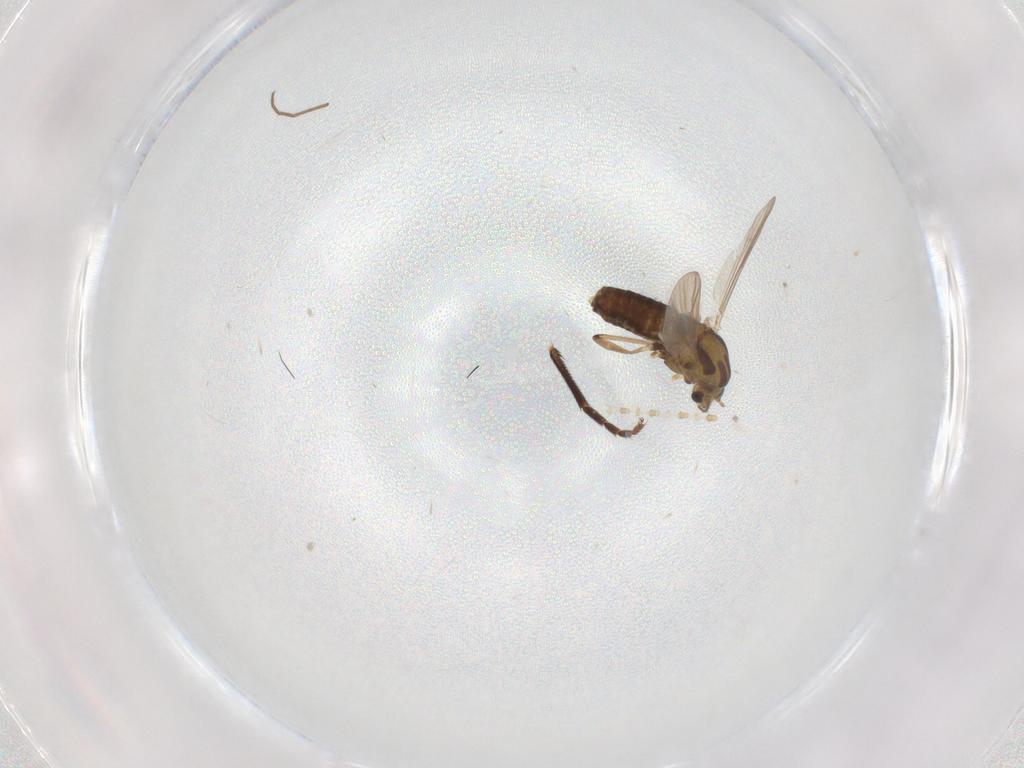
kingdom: Animalia
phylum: Arthropoda
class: Insecta
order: Diptera
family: Chironomidae
